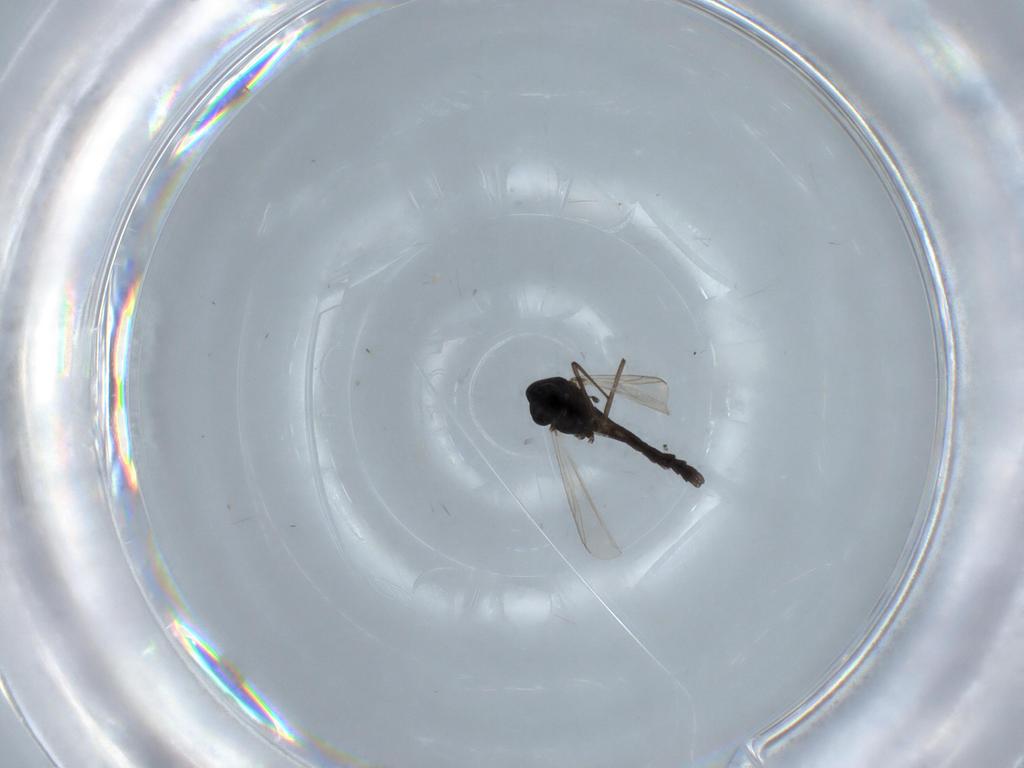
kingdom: Animalia
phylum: Arthropoda
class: Insecta
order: Diptera
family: Chironomidae
